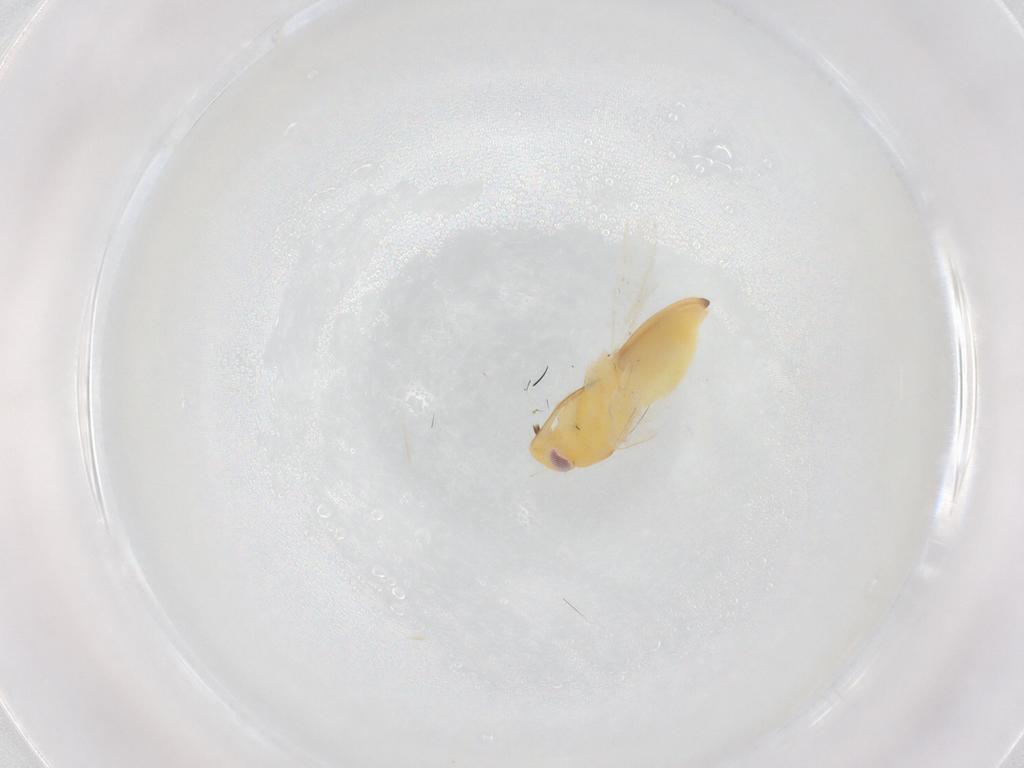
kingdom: Animalia
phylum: Arthropoda
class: Insecta
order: Hemiptera
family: Miridae
